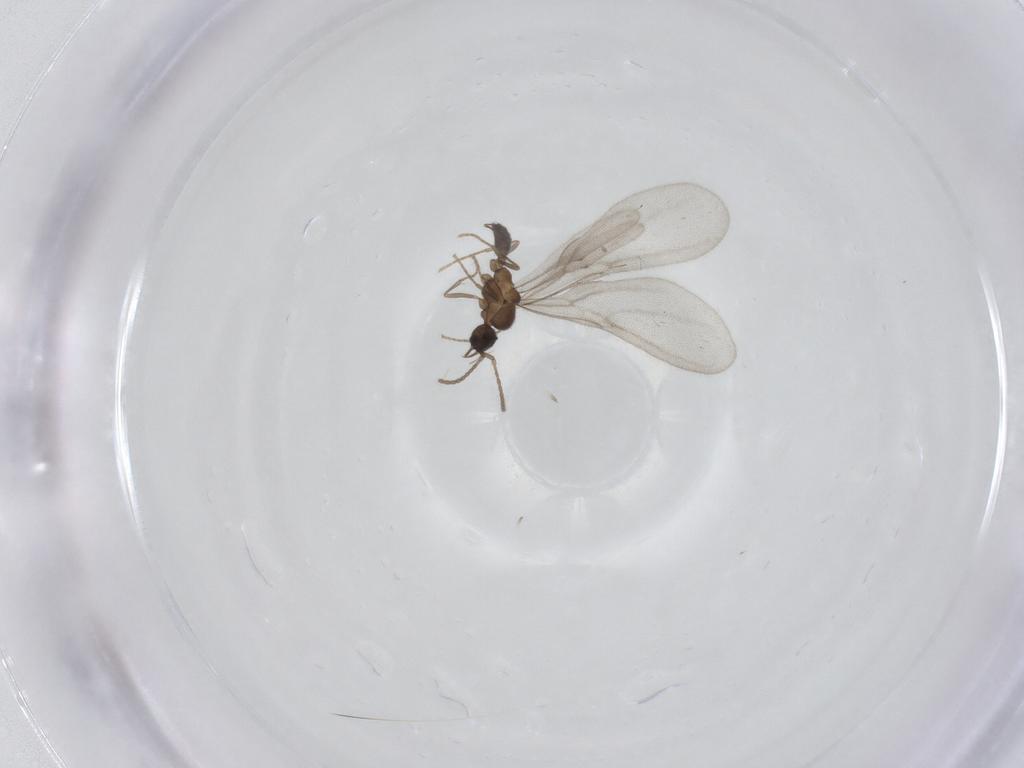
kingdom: Animalia
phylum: Arthropoda
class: Insecta
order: Hymenoptera
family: Formicidae
